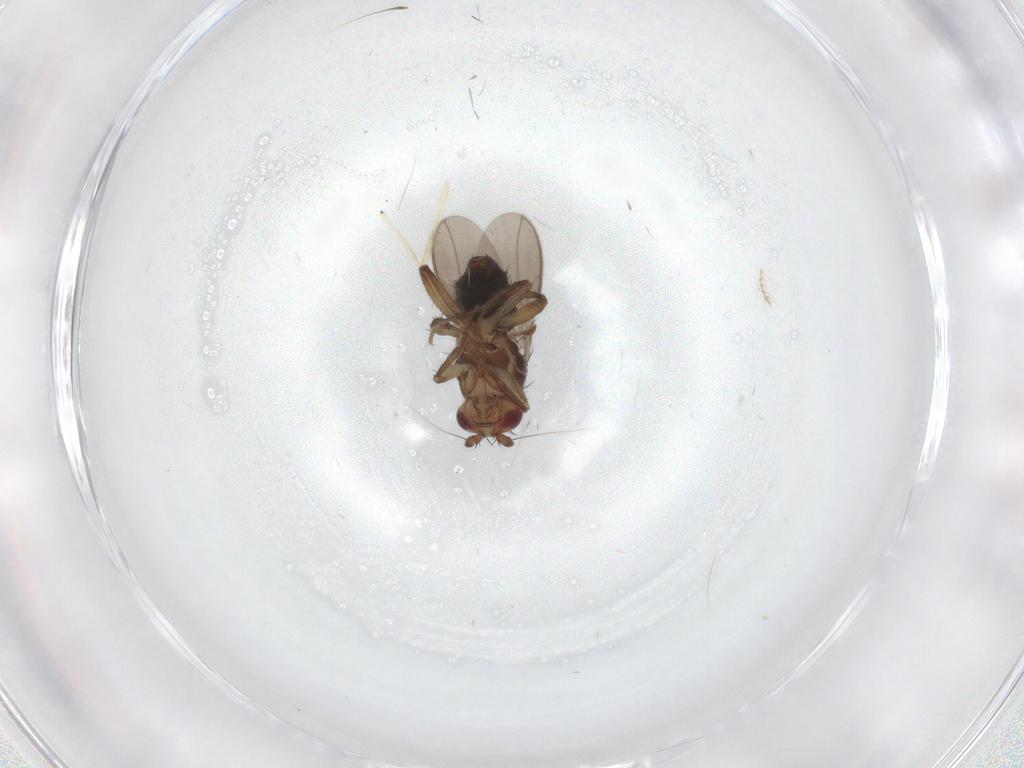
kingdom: Animalia
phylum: Arthropoda
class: Insecta
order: Diptera
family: Sphaeroceridae
